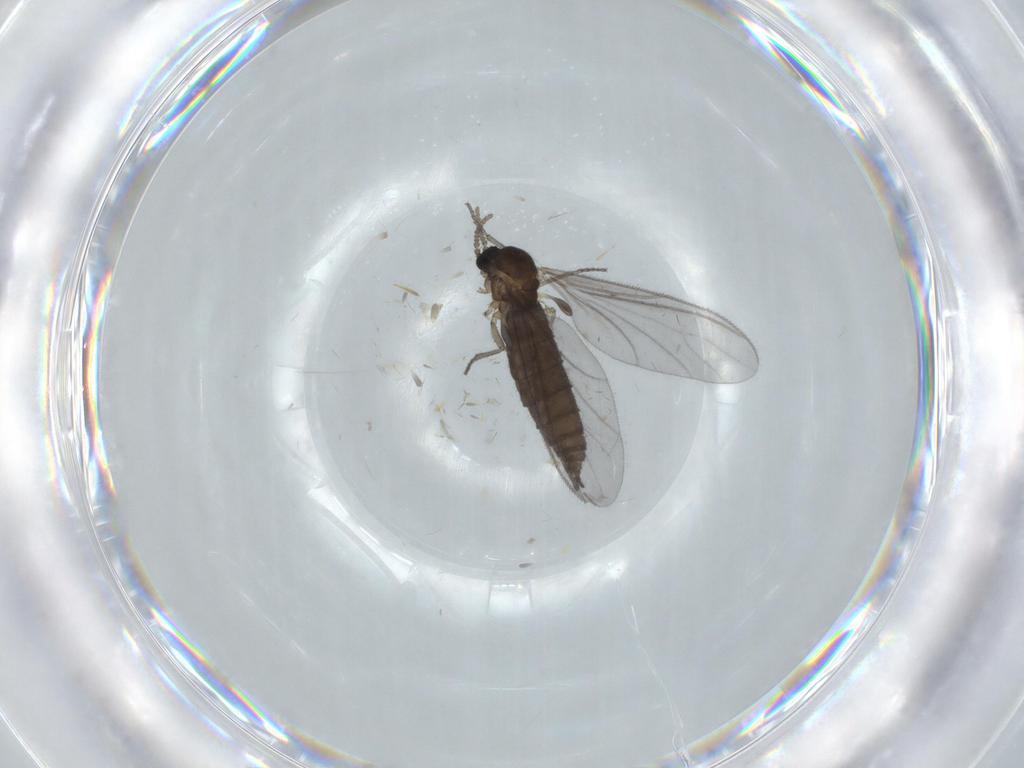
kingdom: Animalia
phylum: Arthropoda
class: Insecta
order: Diptera
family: Sciaridae
